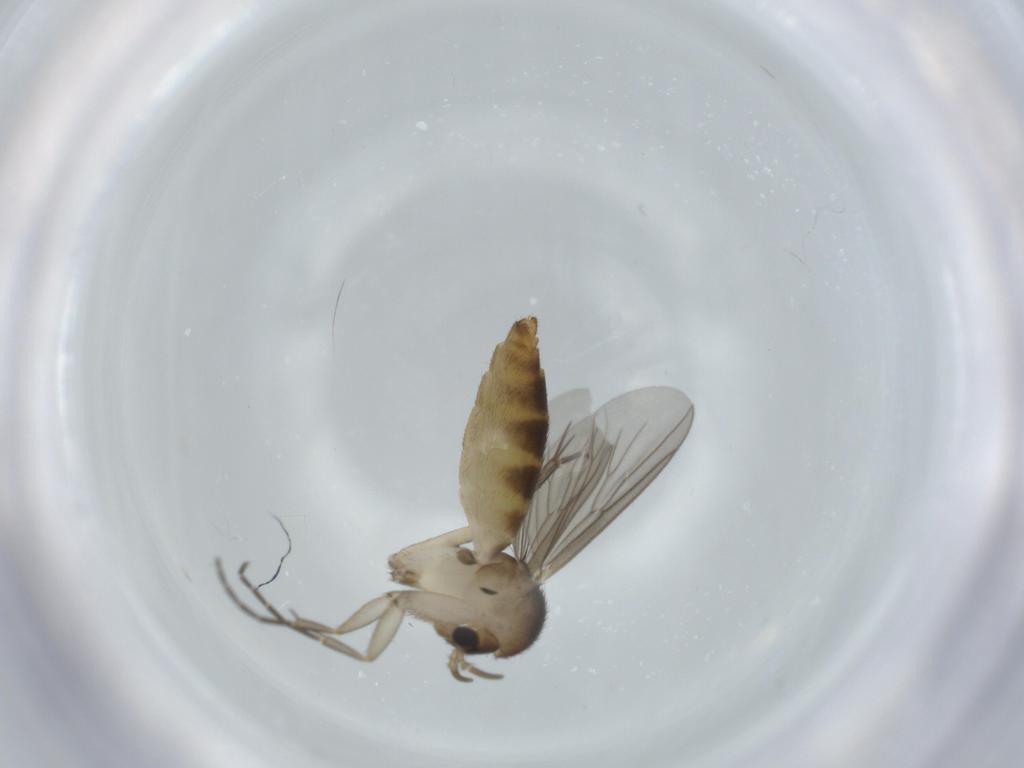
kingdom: Animalia
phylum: Arthropoda
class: Insecta
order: Diptera
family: Mycetophilidae
